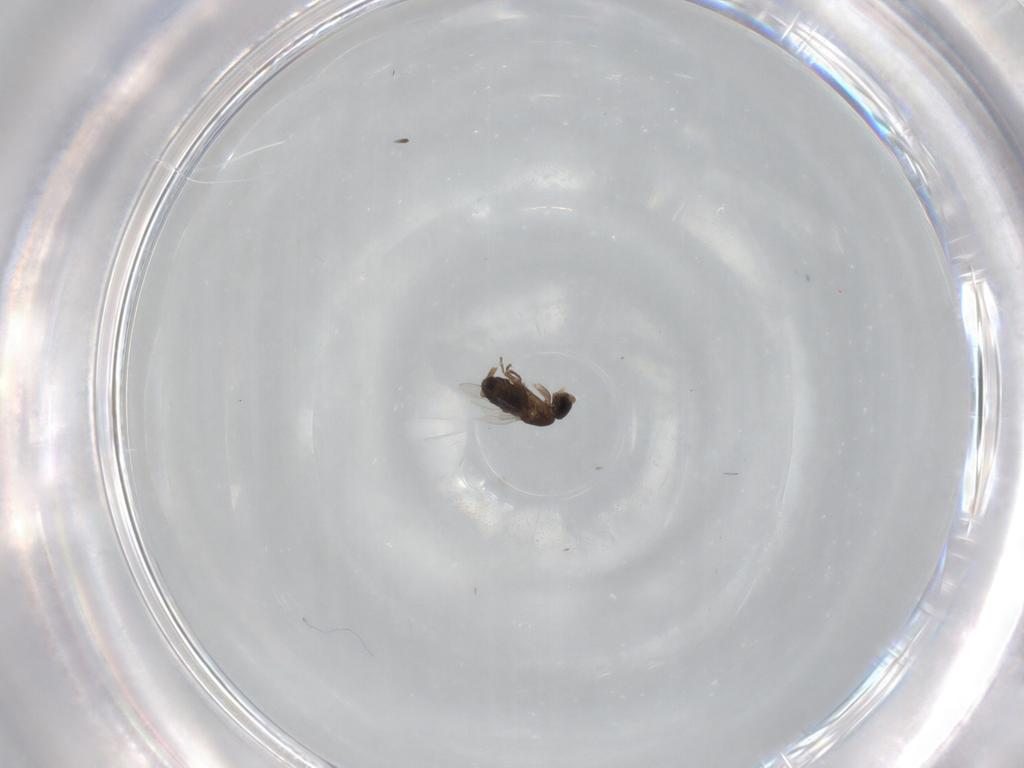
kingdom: Animalia
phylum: Arthropoda
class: Insecta
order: Diptera
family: Phoridae
